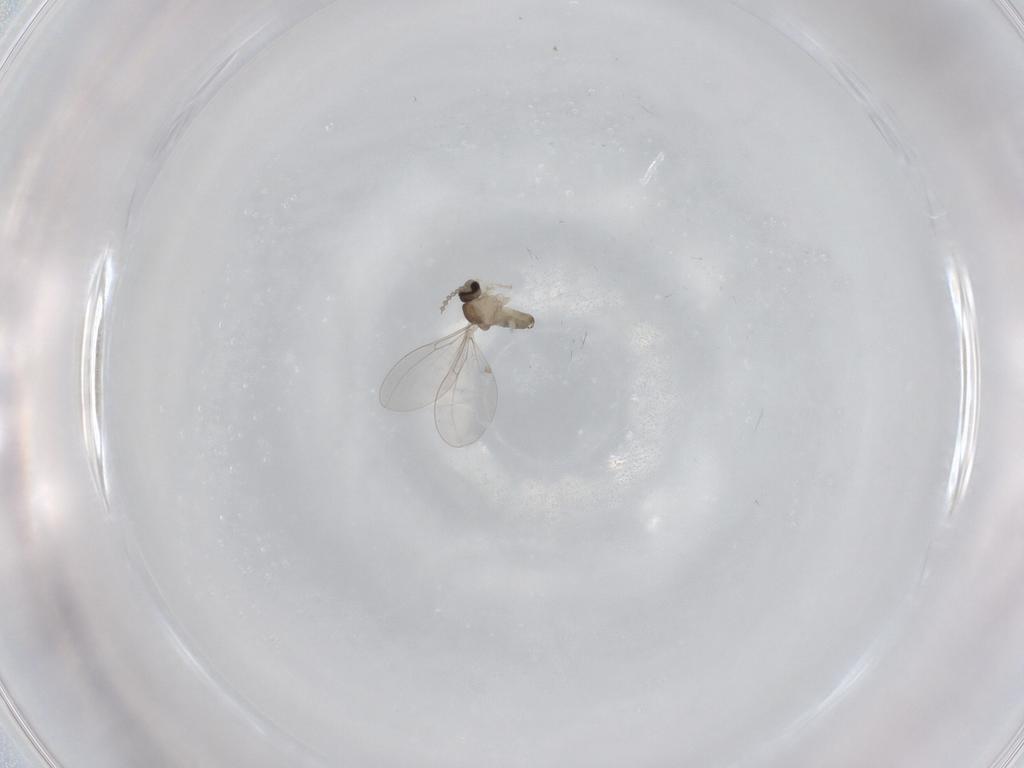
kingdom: Animalia
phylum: Arthropoda
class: Insecta
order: Diptera
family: Cecidomyiidae
